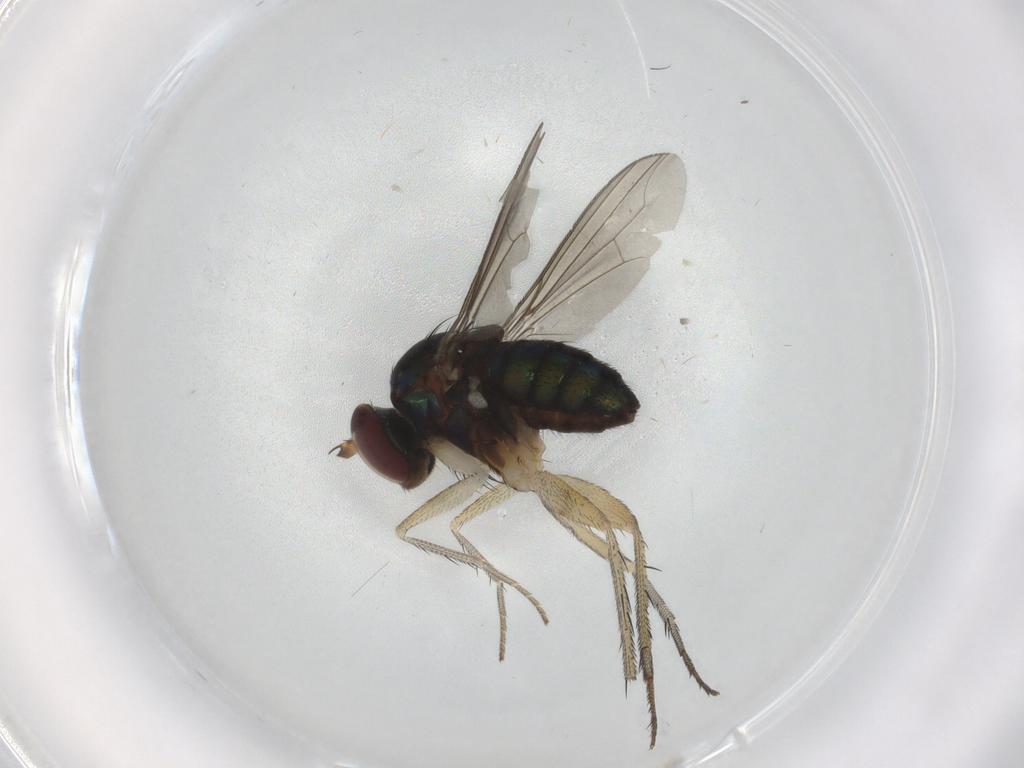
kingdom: Animalia
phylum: Arthropoda
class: Insecta
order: Diptera
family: Dolichopodidae
